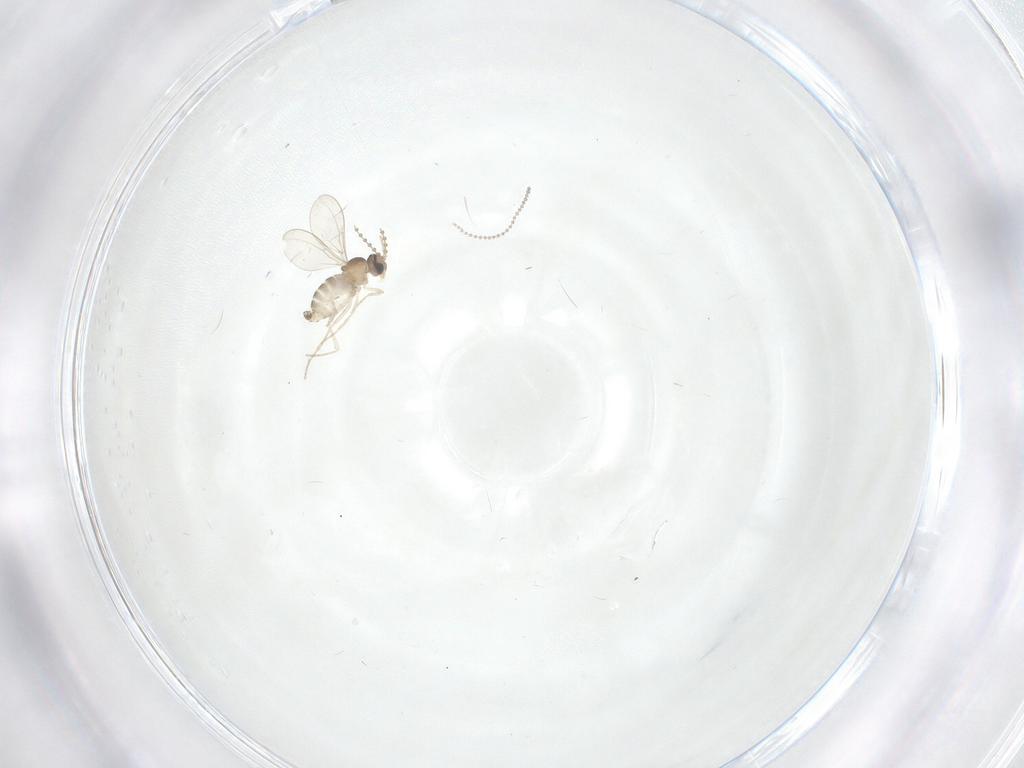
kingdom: Animalia
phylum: Arthropoda
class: Insecta
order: Diptera
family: Cecidomyiidae
